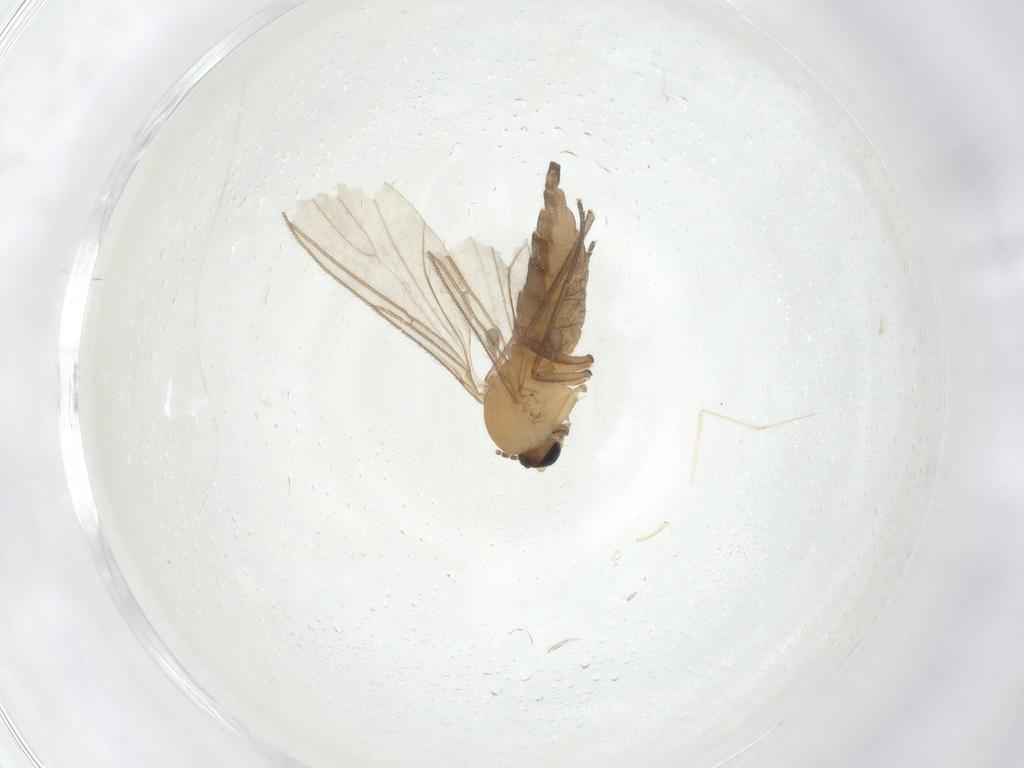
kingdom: Animalia
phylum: Arthropoda
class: Insecta
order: Diptera
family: Sciaridae
